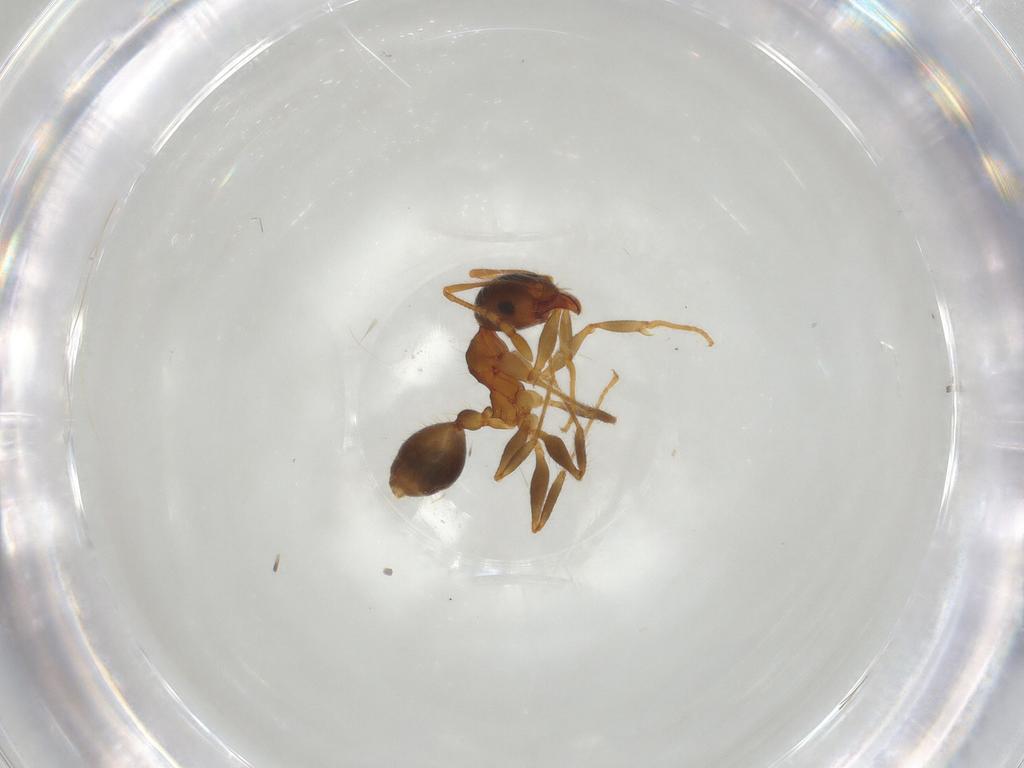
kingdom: Animalia
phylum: Arthropoda
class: Insecta
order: Hymenoptera
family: Formicidae
